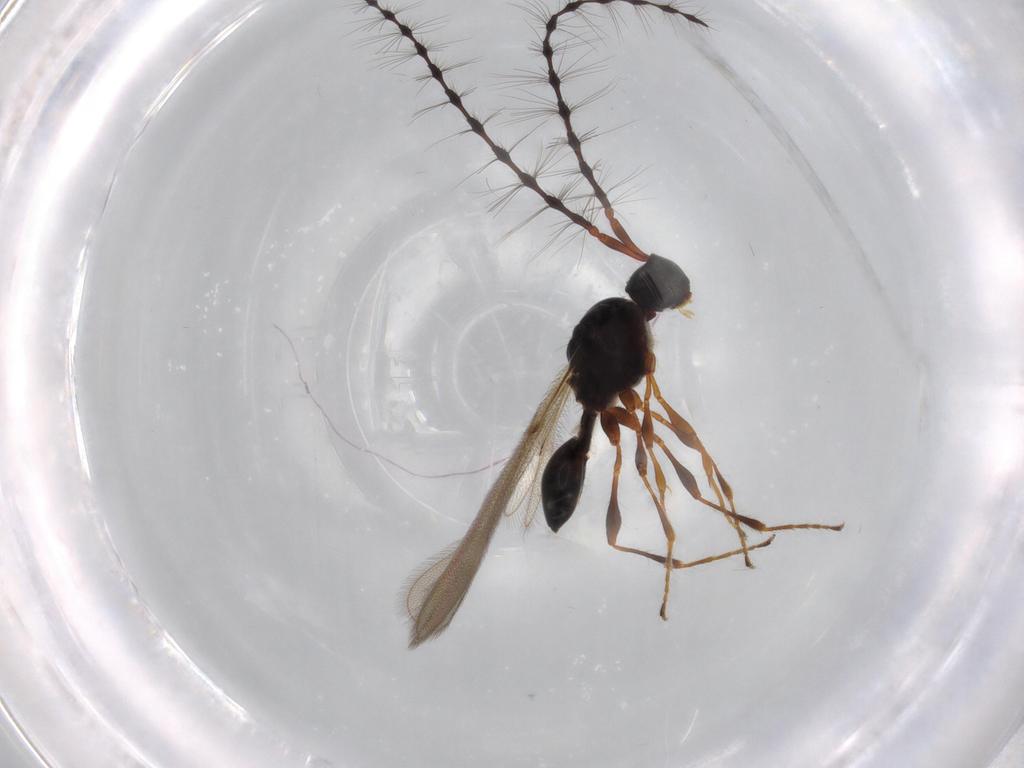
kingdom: Animalia
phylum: Arthropoda
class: Insecta
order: Hymenoptera
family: Diapriidae
